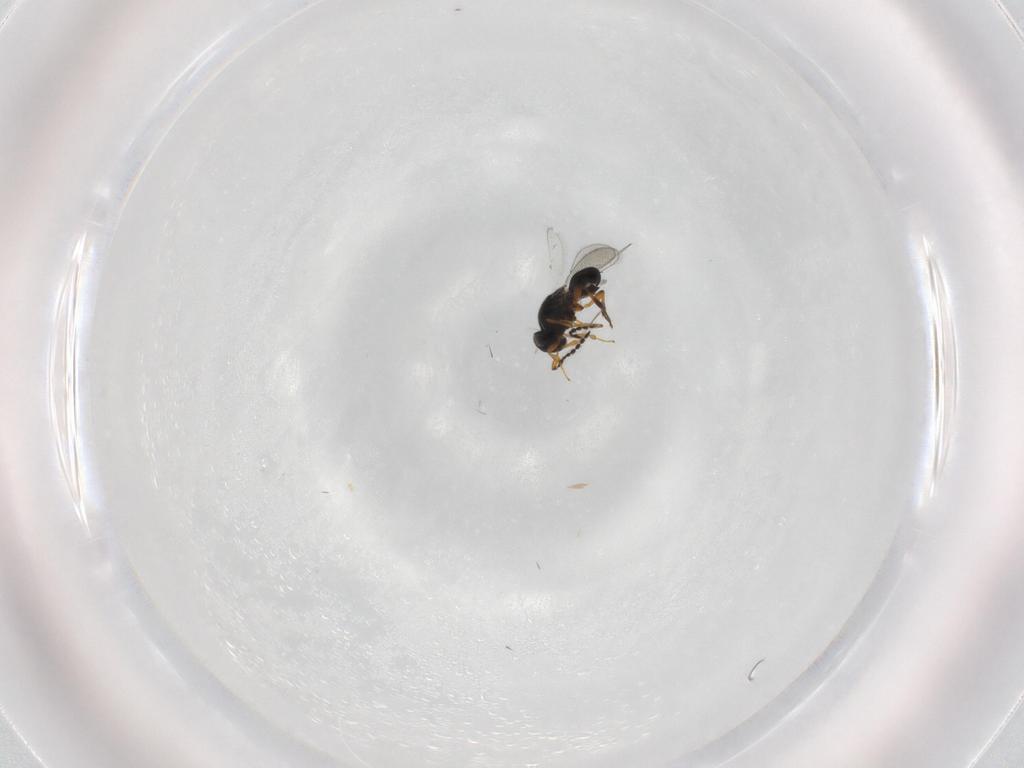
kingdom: Animalia
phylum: Arthropoda
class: Insecta
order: Hymenoptera
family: Platygastridae
